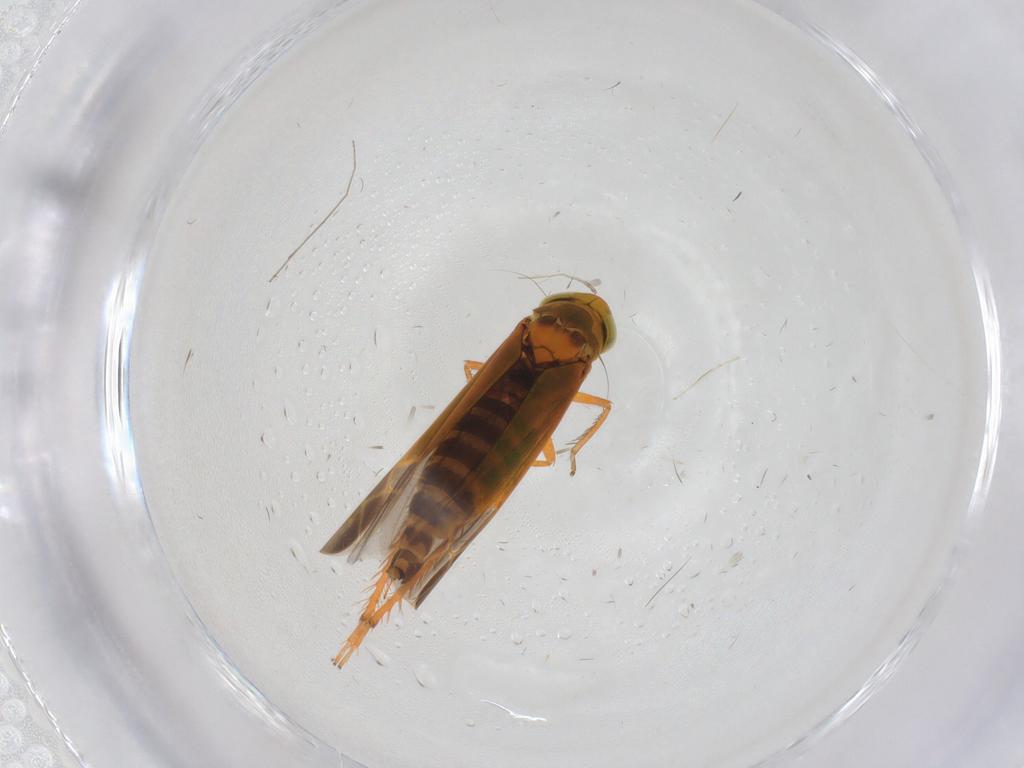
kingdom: Animalia
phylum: Arthropoda
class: Insecta
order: Hemiptera
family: Cicadellidae
